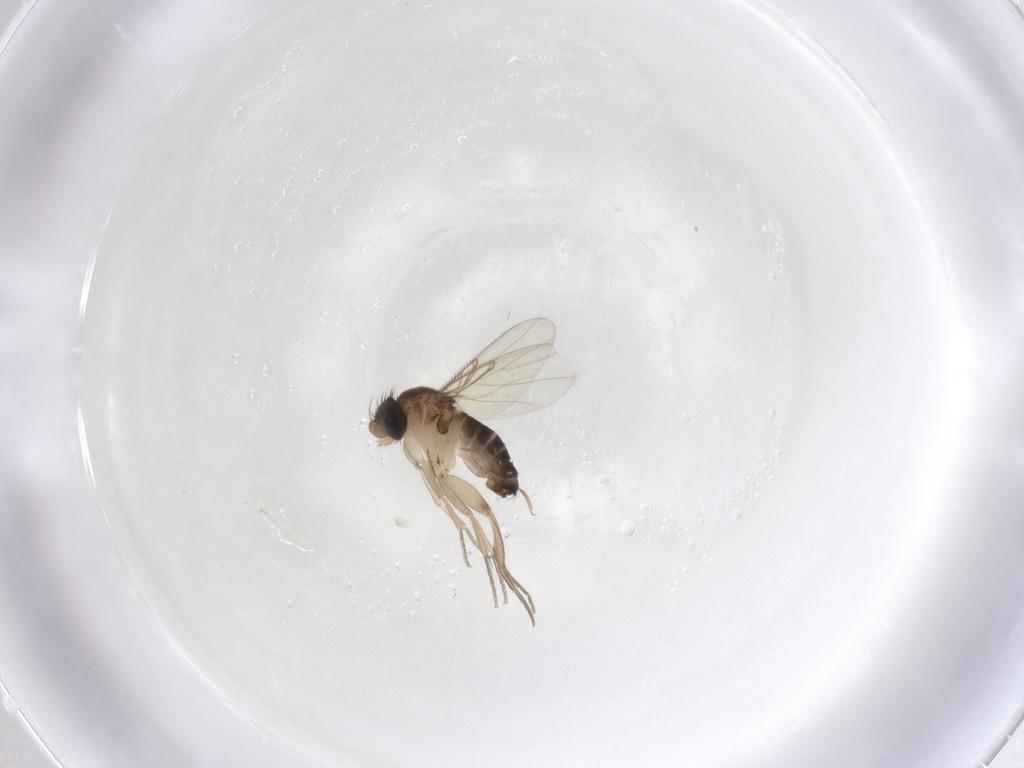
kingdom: Animalia
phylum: Arthropoda
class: Insecta
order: Diptera
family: Phoridae
